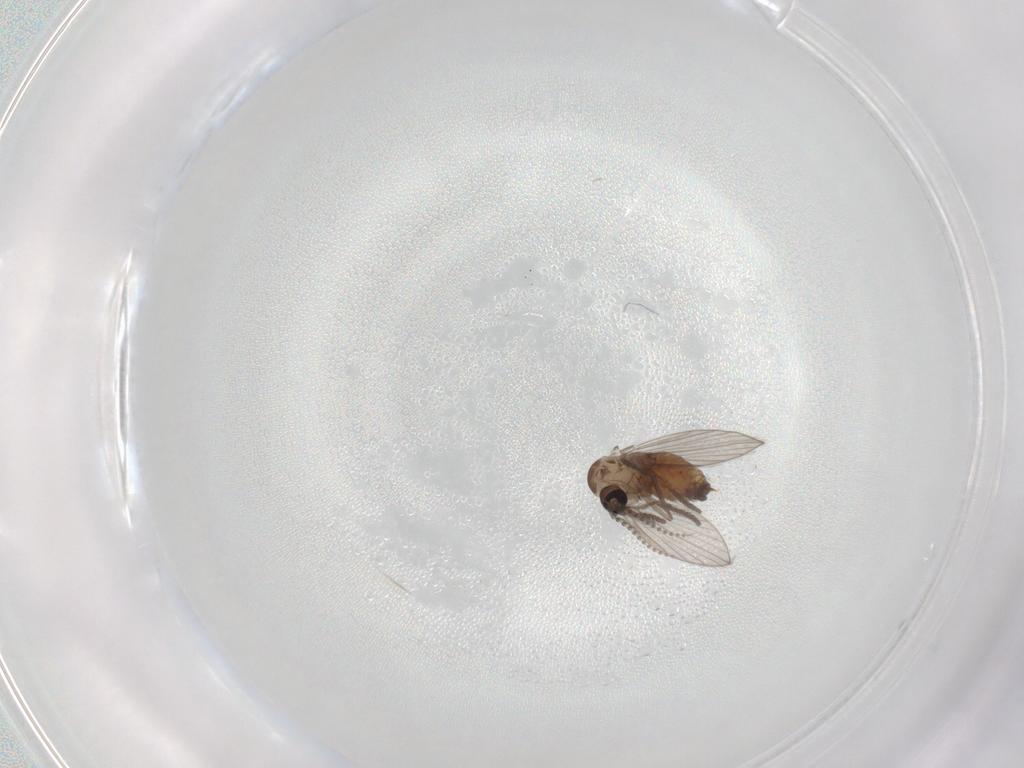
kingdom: Animalia
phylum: Arthropoda
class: Insecta
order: Diptera
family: Psychodidae
